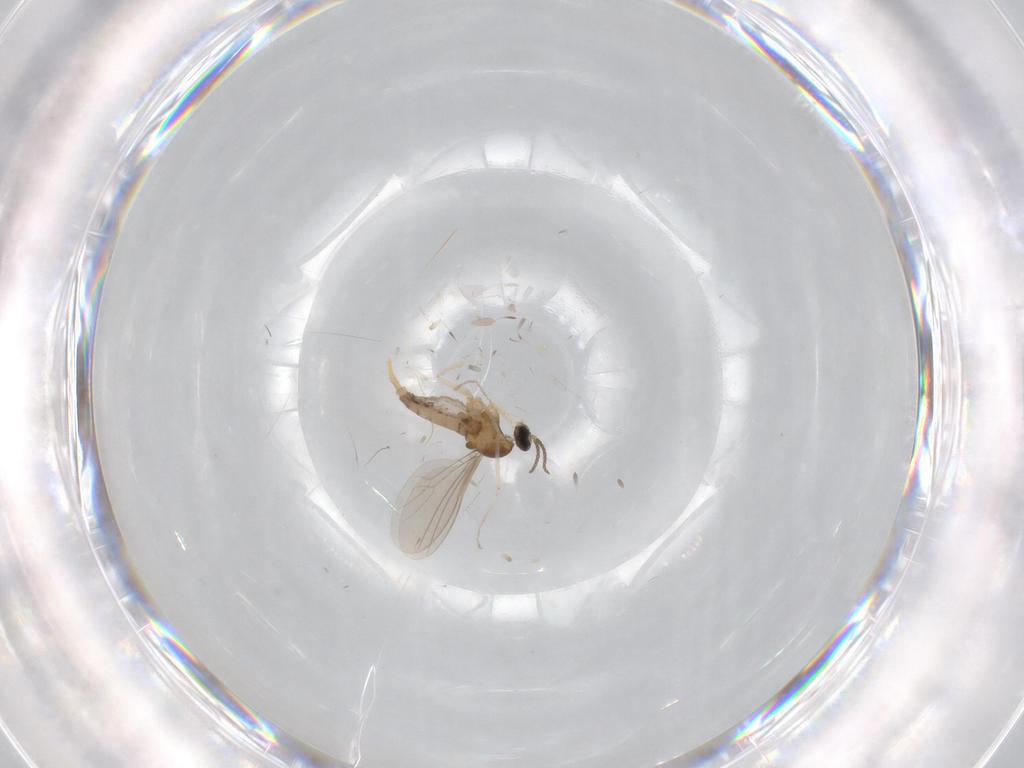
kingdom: Animalia
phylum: Arthropoda
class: Insecta
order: Diptera
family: Cecidomyiidae
